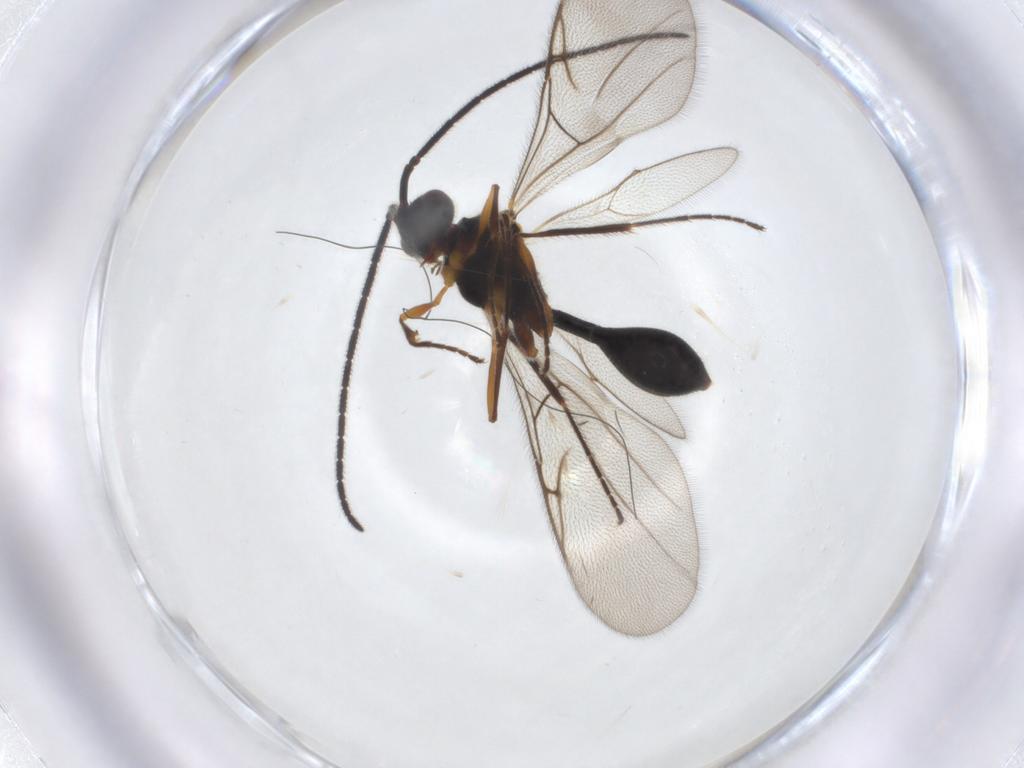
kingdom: Animalia
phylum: Arthropoda
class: Insecta
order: Hymenoptera
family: Diapriidae
